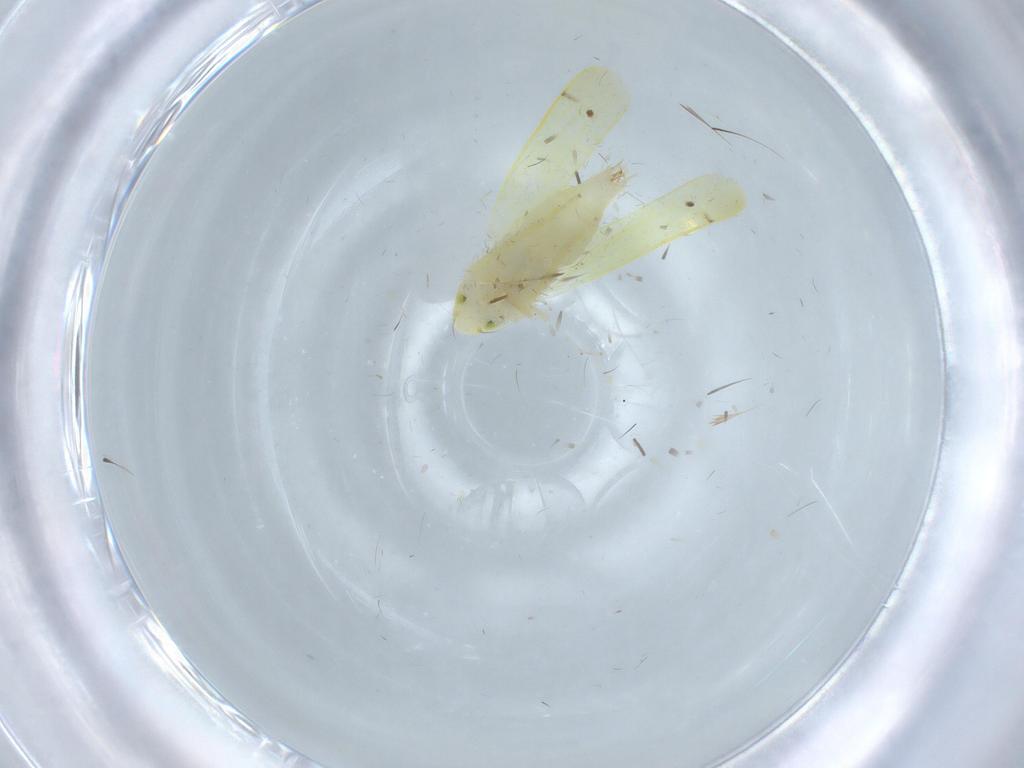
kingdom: Animalia
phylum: Arthropoda
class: Insecta
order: Hemiptera
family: Cicadellidae
